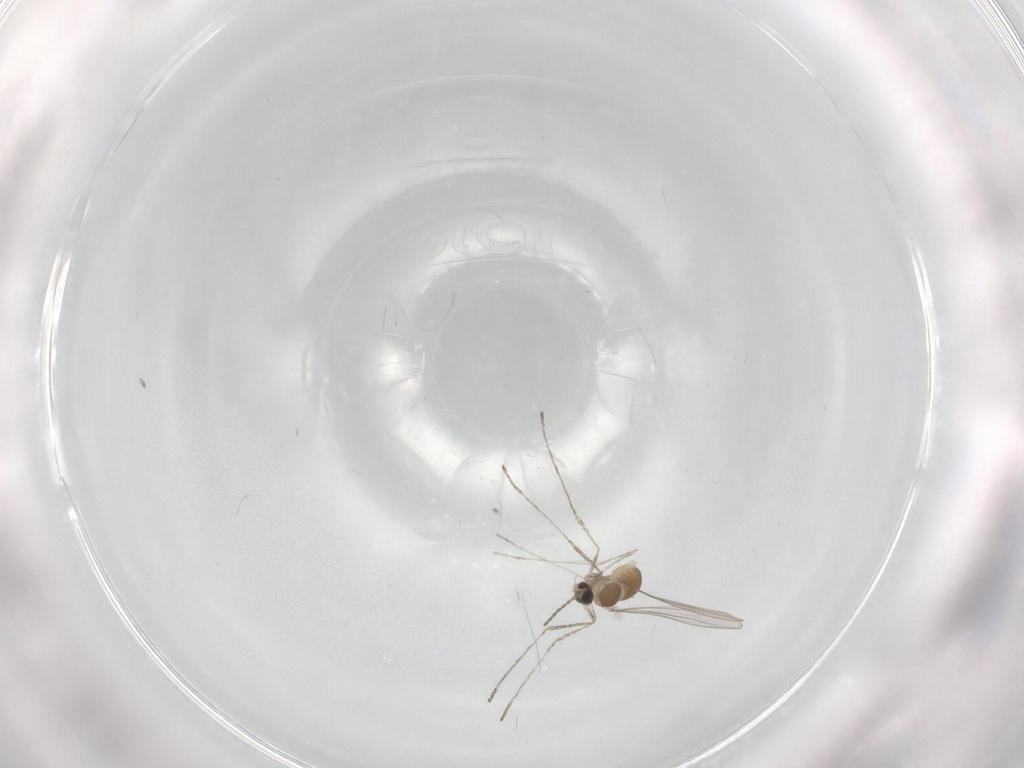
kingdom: Animalia
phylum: Arthropoda
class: Insecta
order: Diptera
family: Cecidomyiidae
